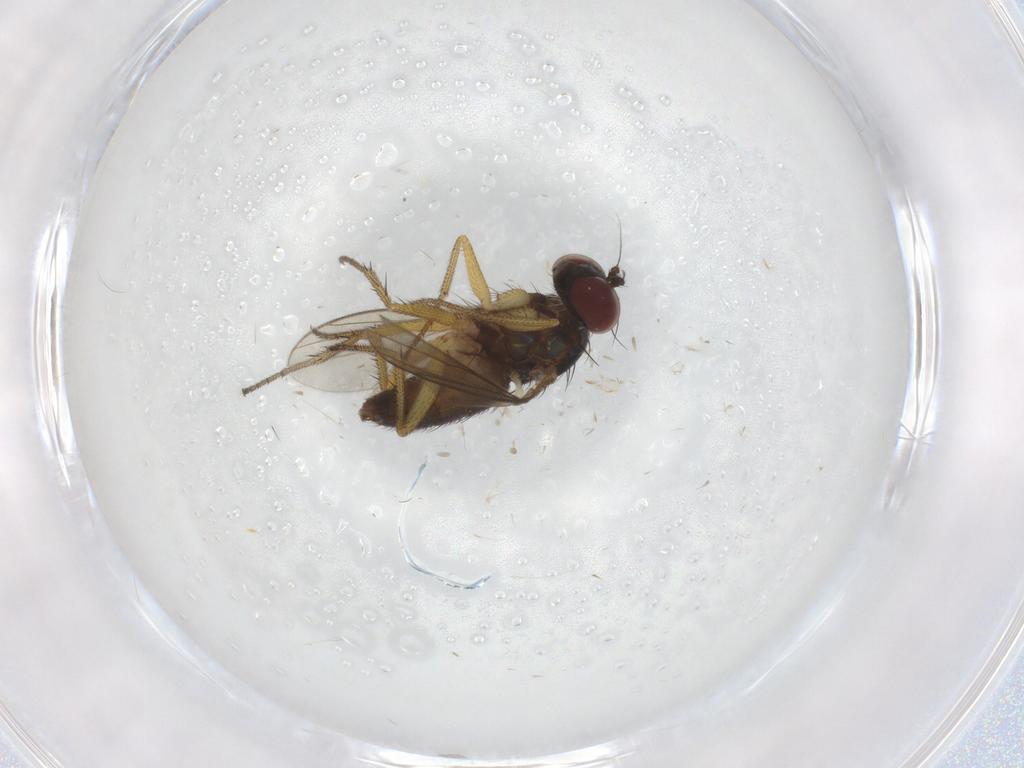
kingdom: Animalia
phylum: Arthropoda
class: Insecta
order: Diptera
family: Dolichopodidae
